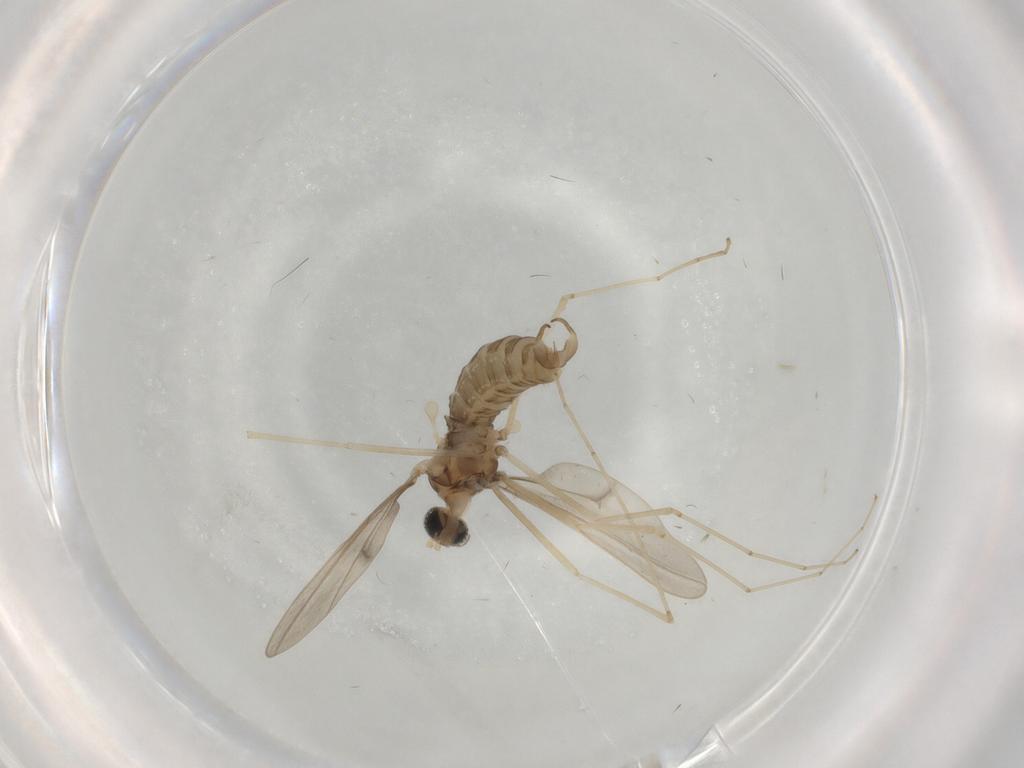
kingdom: Animalia
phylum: Arthropoda
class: Insecta
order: Diptera
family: Cecidomyiidae
